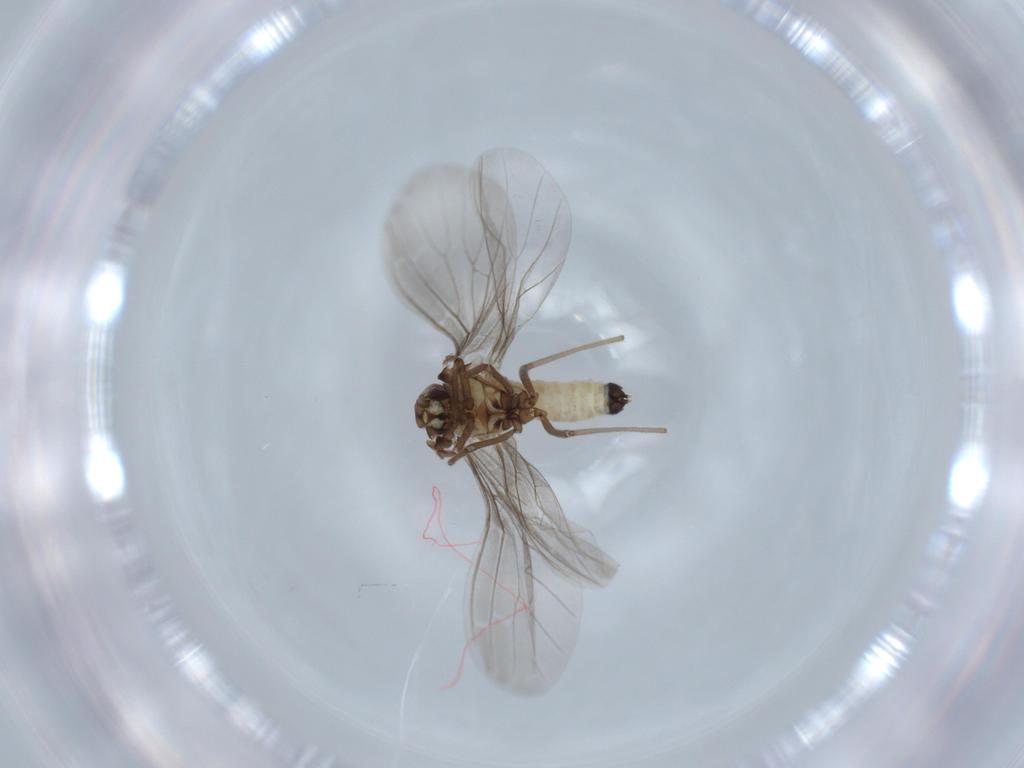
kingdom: Animalia
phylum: Arthropoda
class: Insecta
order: Neuroptera
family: Coniopterygidae
